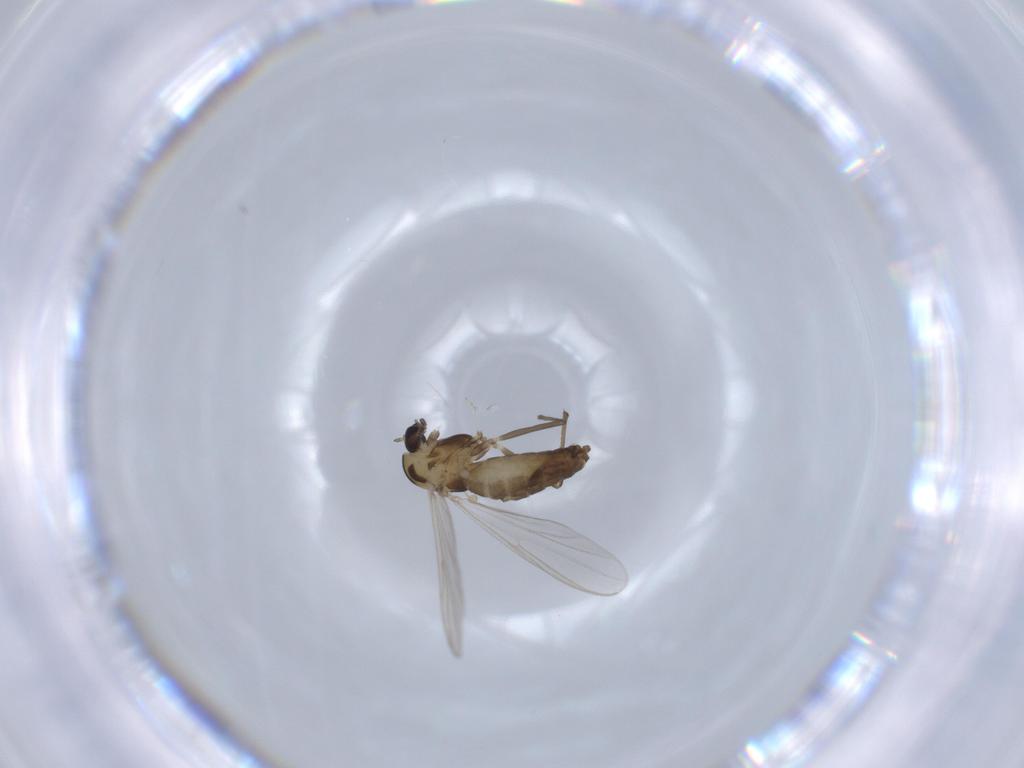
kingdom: Animalia
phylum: Arthropoda
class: Insecta
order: Diptera
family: Chironomidae
